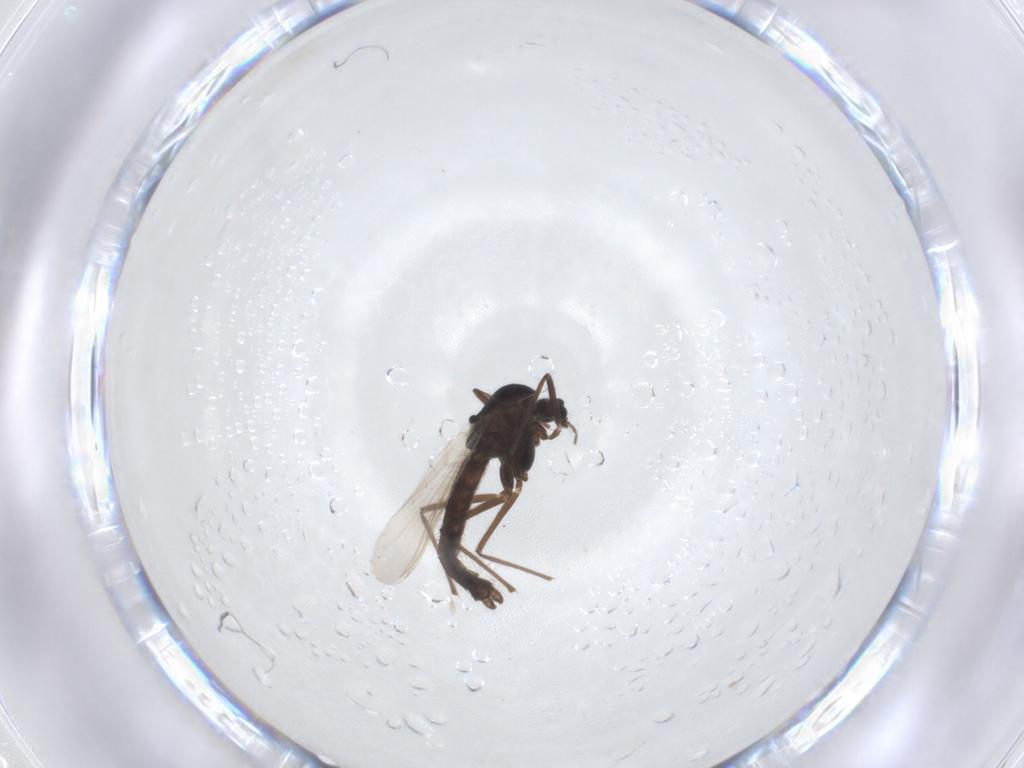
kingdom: Animalia
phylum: Arthropoda
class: Insecta
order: Diptera
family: Chironomidae
